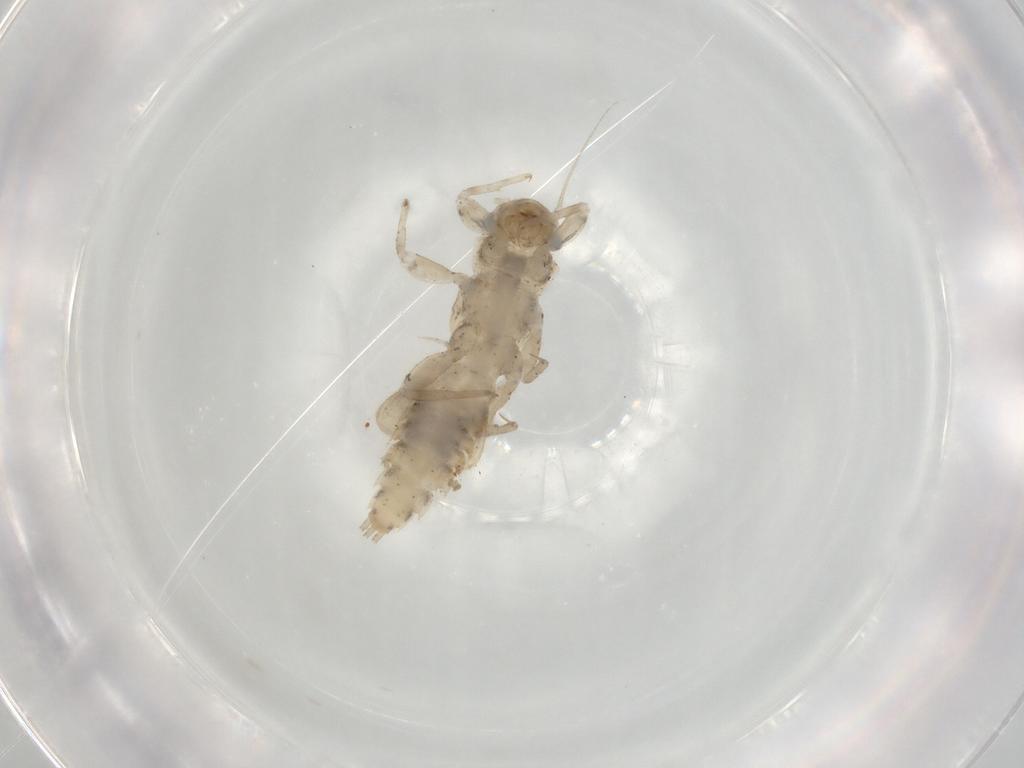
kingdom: Animalia
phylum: Arthropoda
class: Insecta
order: Ephemeroptera
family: Caenidae
